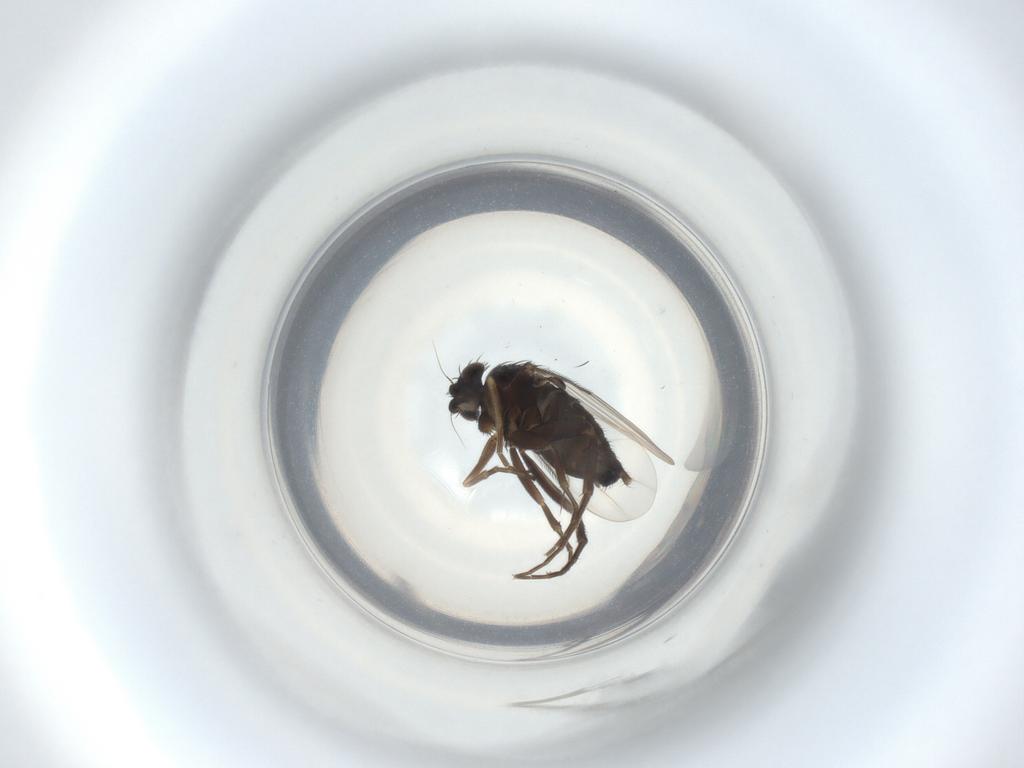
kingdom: Animalia
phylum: Arthropoda
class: Insecta
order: Diptera
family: Phoridae
